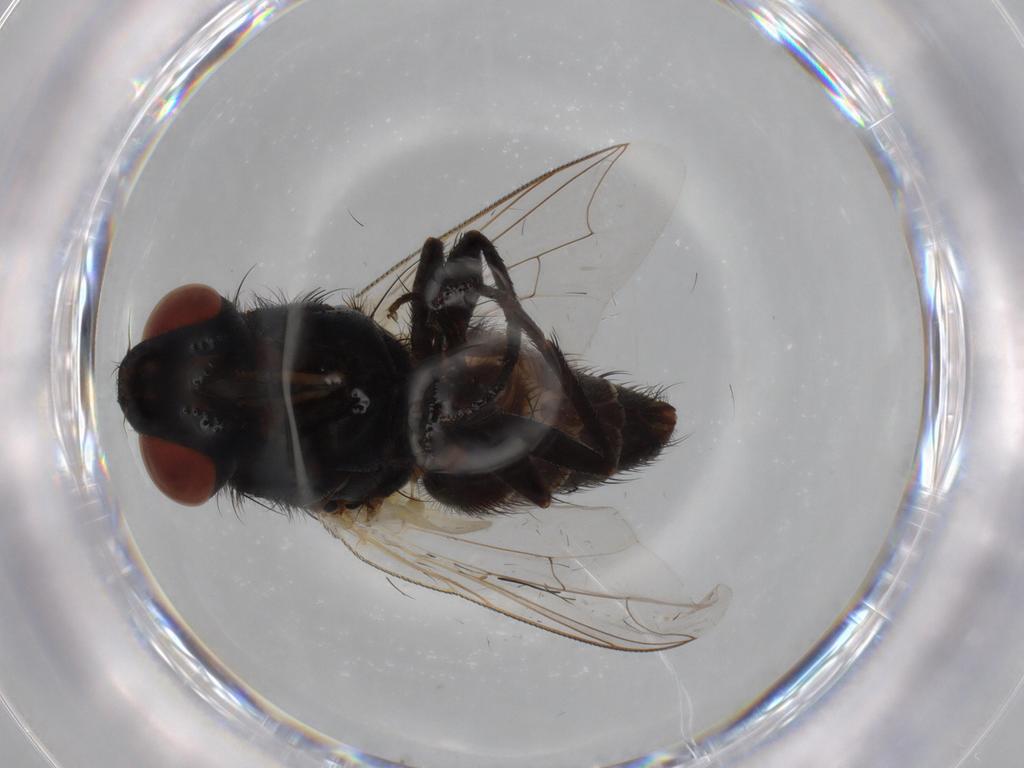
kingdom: Animalia
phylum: Arthropoda
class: Insecta
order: Diptera
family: Sarcophagidae
